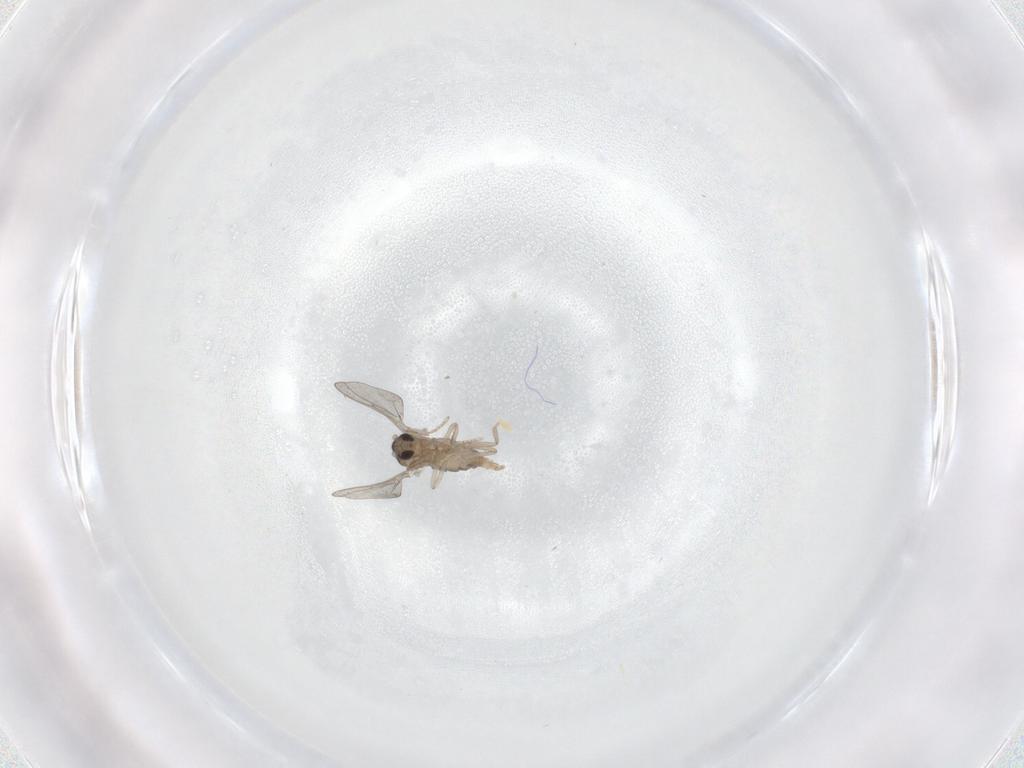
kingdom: Animalia
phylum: Arthropoda
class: Insecta
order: Diptera
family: Cecidomyiidae
